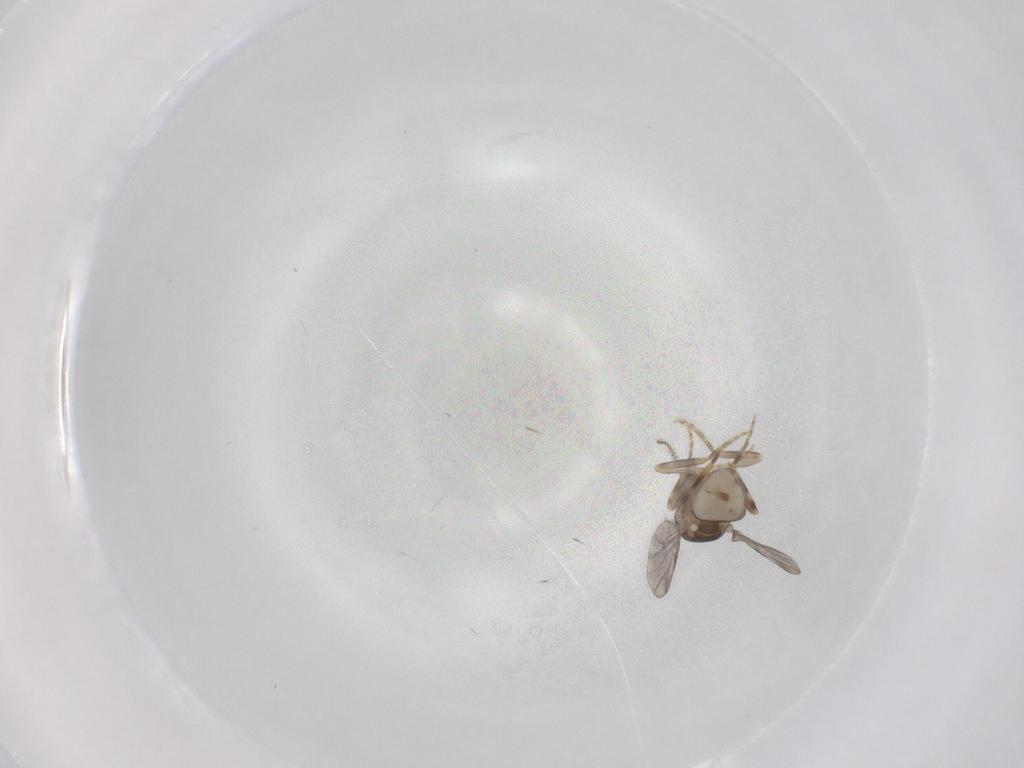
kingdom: Animalia
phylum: Arthropoda
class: Insecta
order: Diptera
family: Ceratopogonidae
